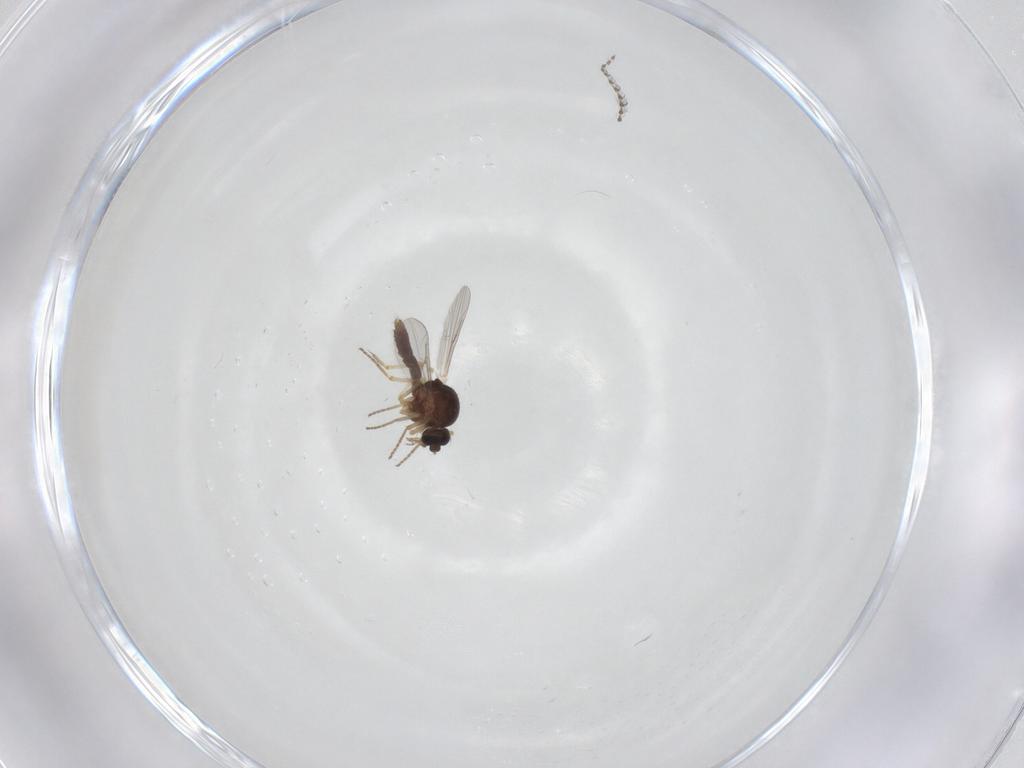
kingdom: Animalia
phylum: Arthropoda
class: Insecta
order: Diptera
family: Ceratopogonidae
